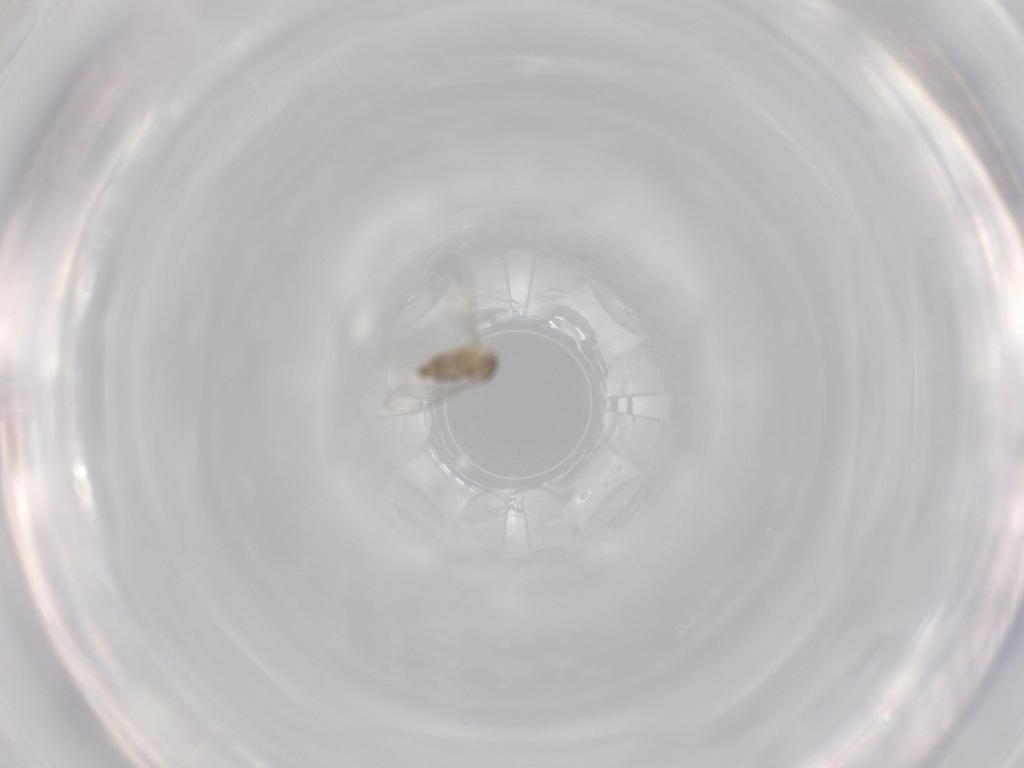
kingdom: Animalia
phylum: Arthropoda
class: Insecta
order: Diptera
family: Cecidomyiidae
